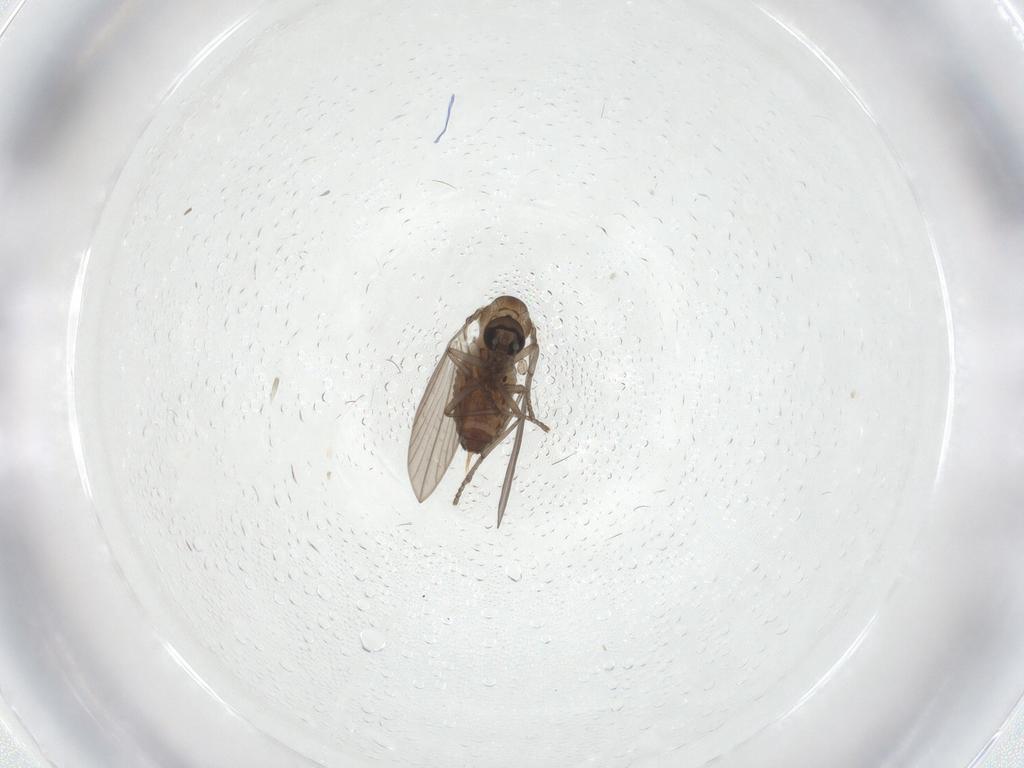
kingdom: Animalia
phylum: Arthropoda
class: Insecta
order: Diptera
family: Psychodidae
